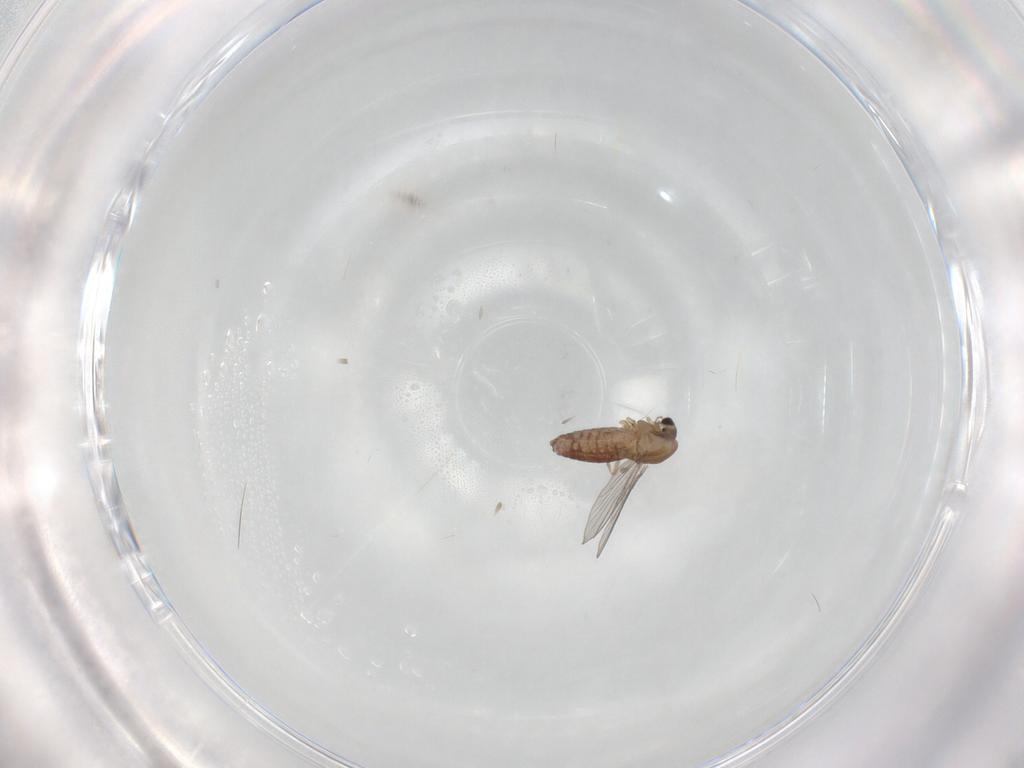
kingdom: Animalia
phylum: Arthropoda
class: Insecta
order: Diptera
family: Chironomidae
